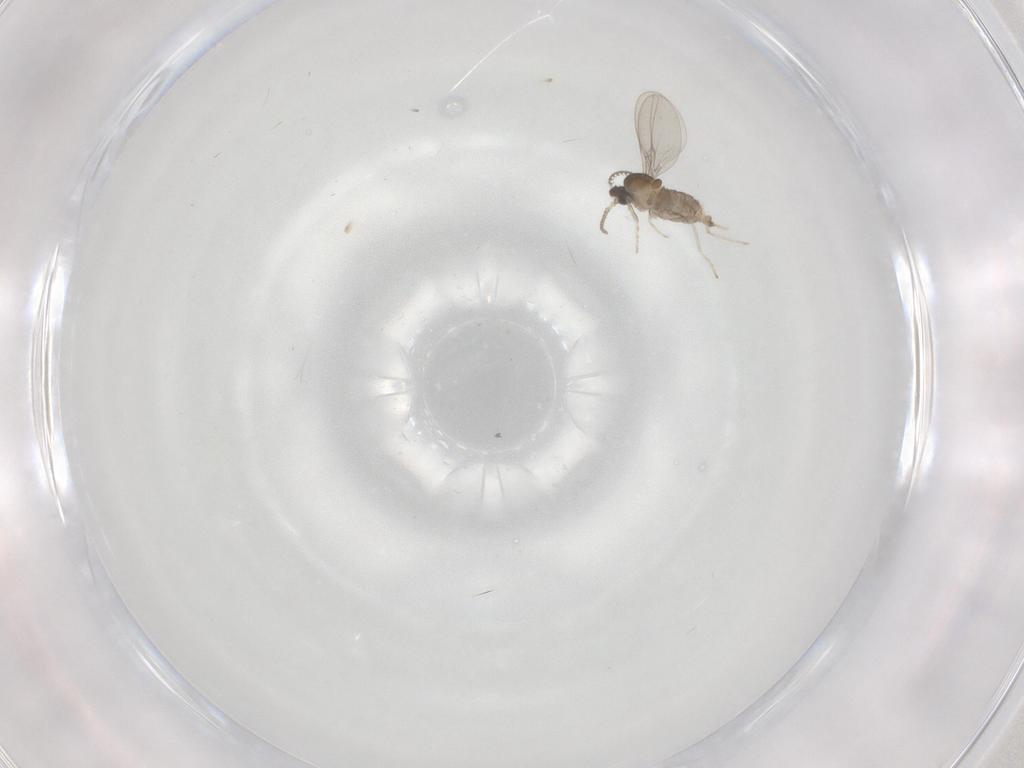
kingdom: Animalia
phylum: Arthropoda
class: Insecta
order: Diptera
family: Cecidomyiidae
